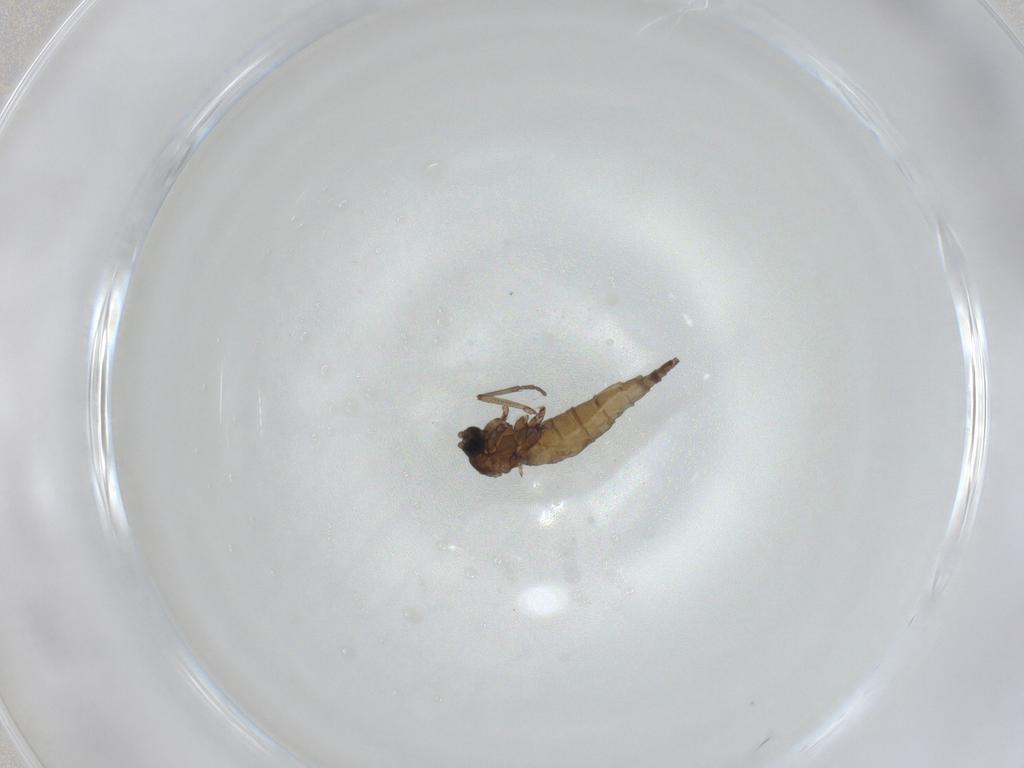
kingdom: Animalia
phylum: Arthropoda
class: Insecta
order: Diptera
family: Sciaridae
